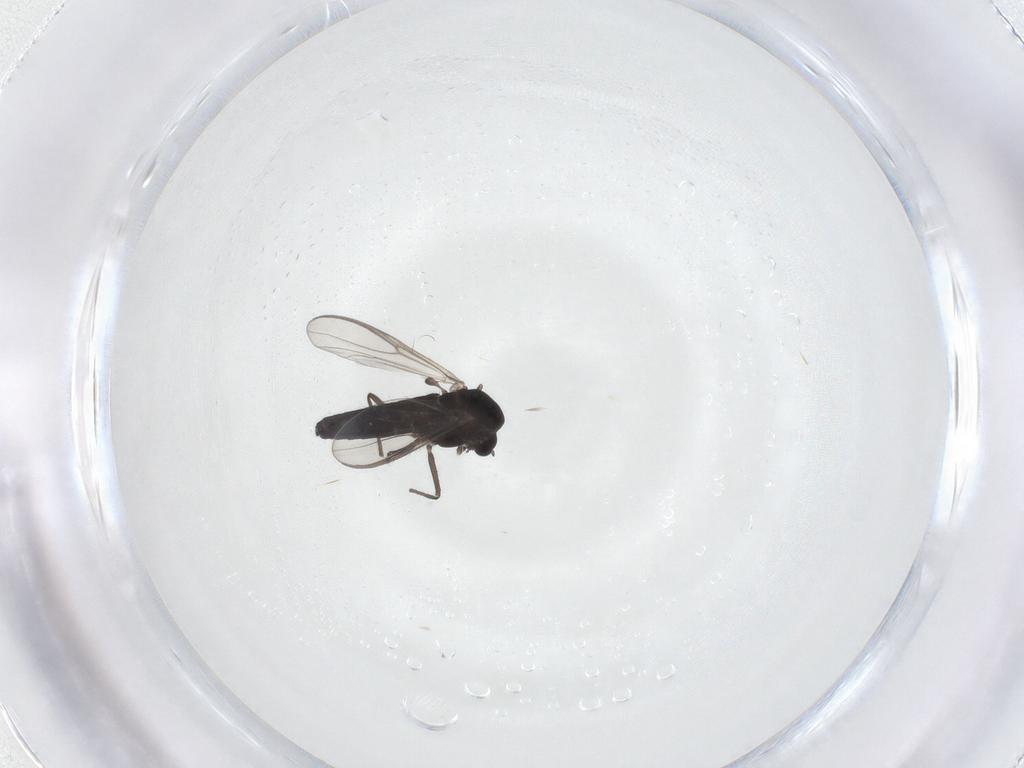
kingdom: Animalia
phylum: Arthropoda
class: Insecta
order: Diptera
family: Chironomidae
